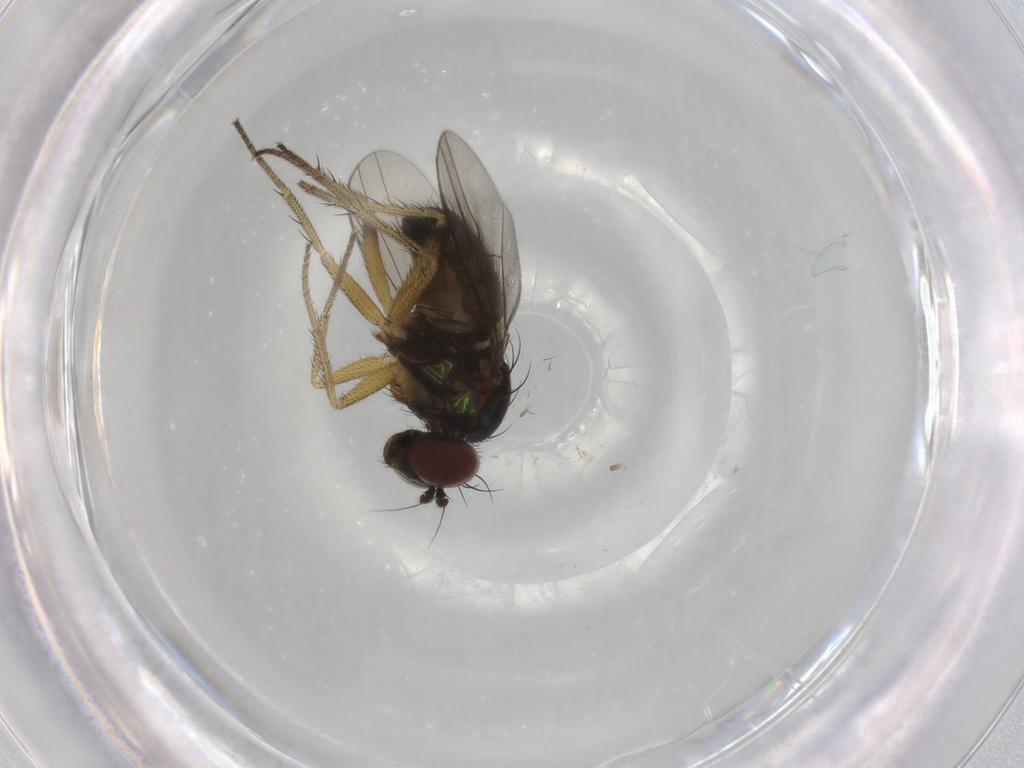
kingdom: Animalia
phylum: Arthropoda
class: Insecta
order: Diptera
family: Dolichopodidae
